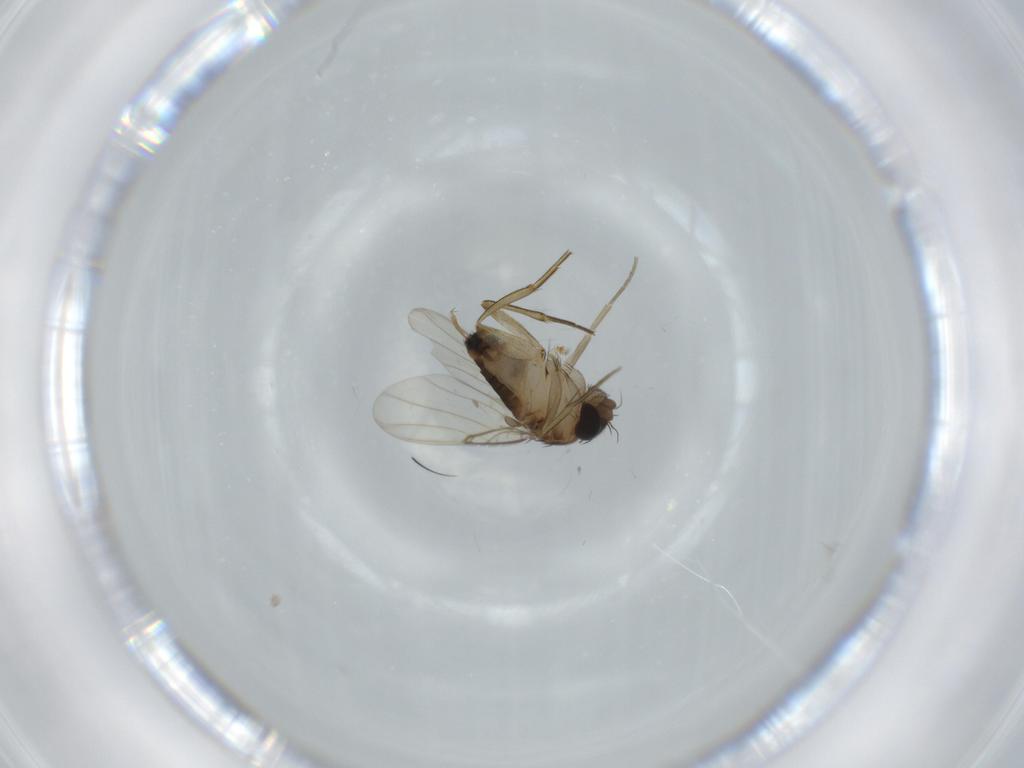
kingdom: Animalia
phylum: Arthropoda
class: Insecta
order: Diptera
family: Phoridae
